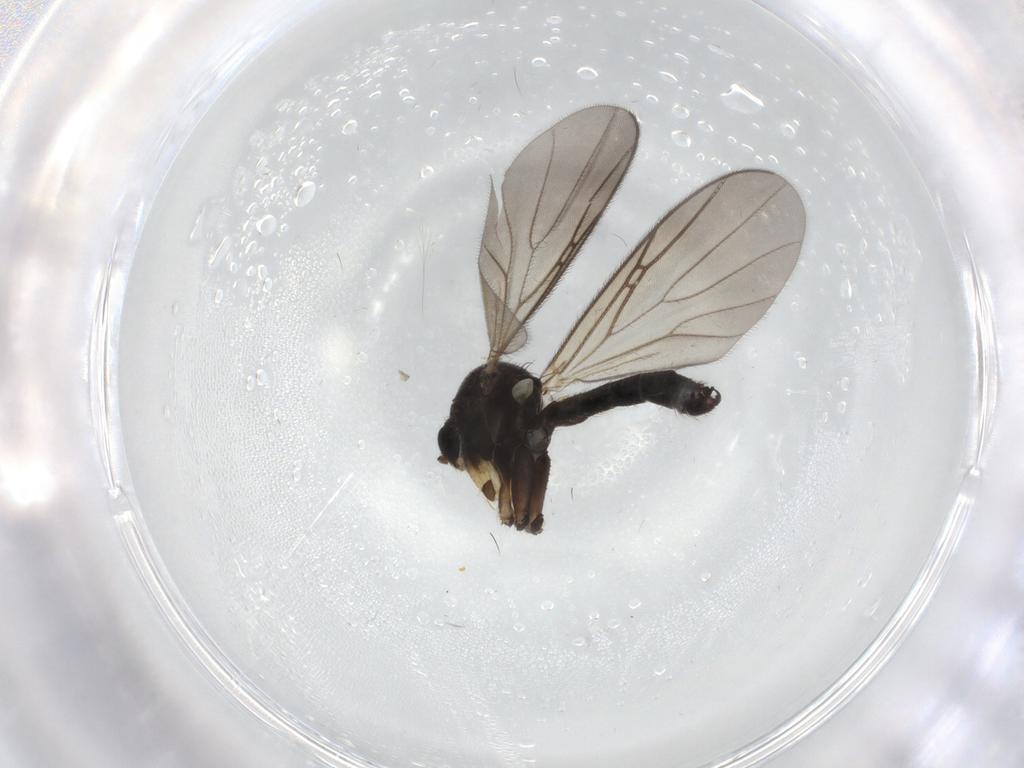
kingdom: Animalia
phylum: Arthropoda
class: Insecta
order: Diptera
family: Mycetophilidae
